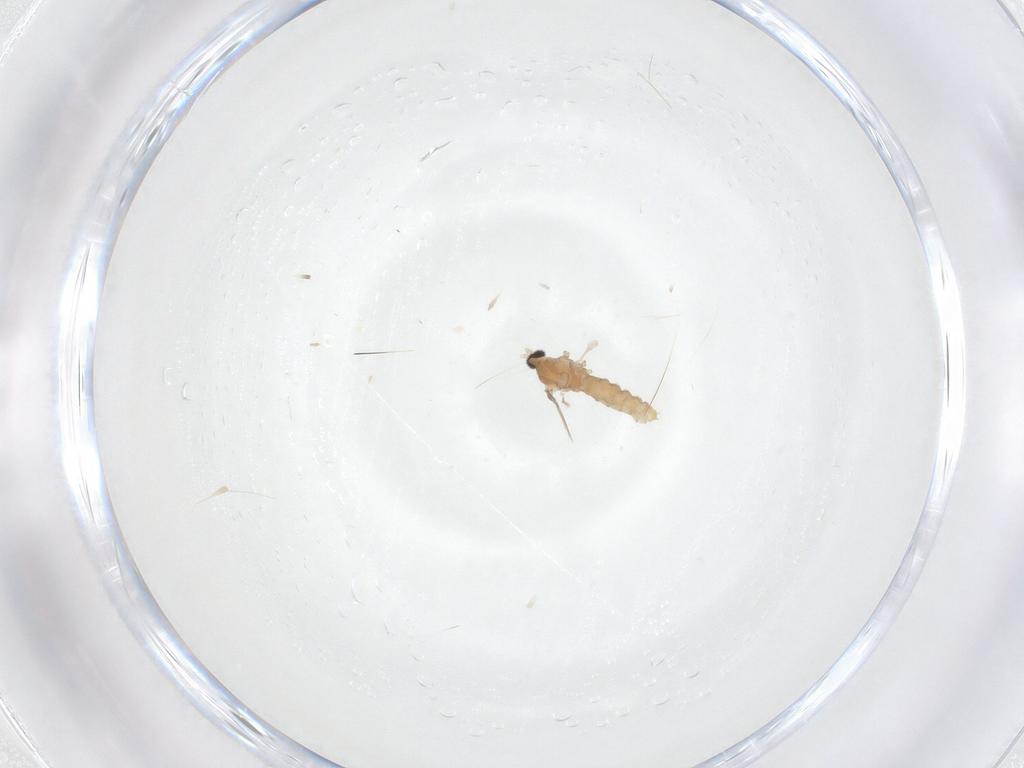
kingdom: Animalia
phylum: Arthropoda
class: Insecta
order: Diptera
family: Cecidomyiidae
